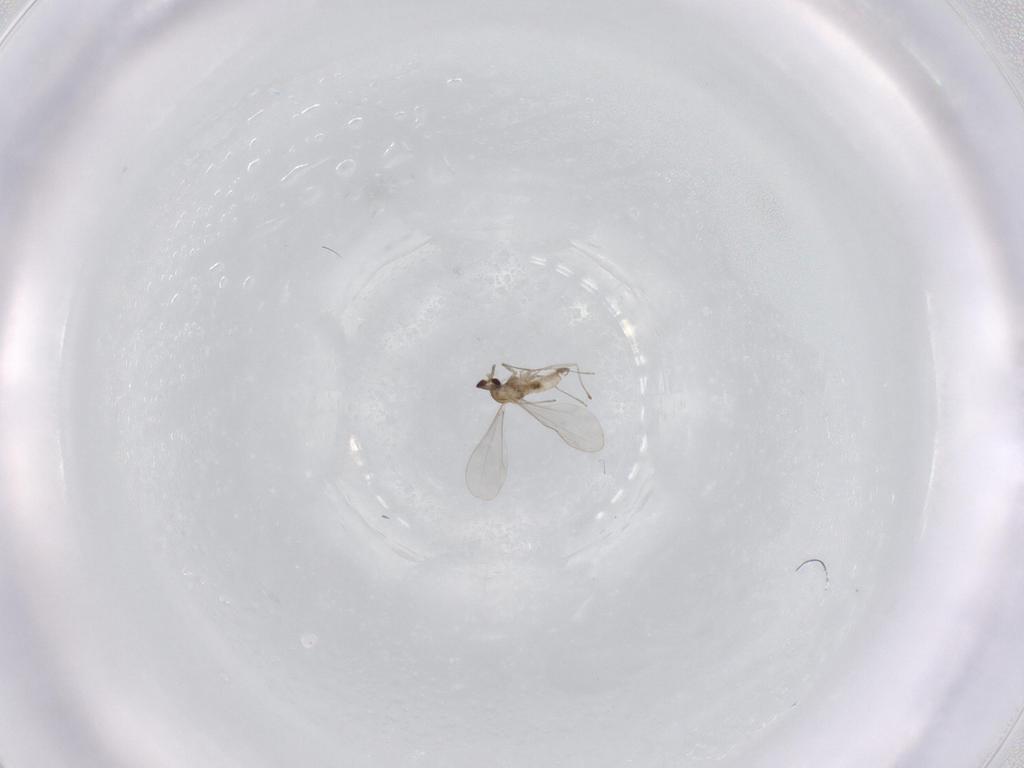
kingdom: Animalia
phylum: Arthropoda
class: Insecta
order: Diptera
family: Cecidomyiidae
